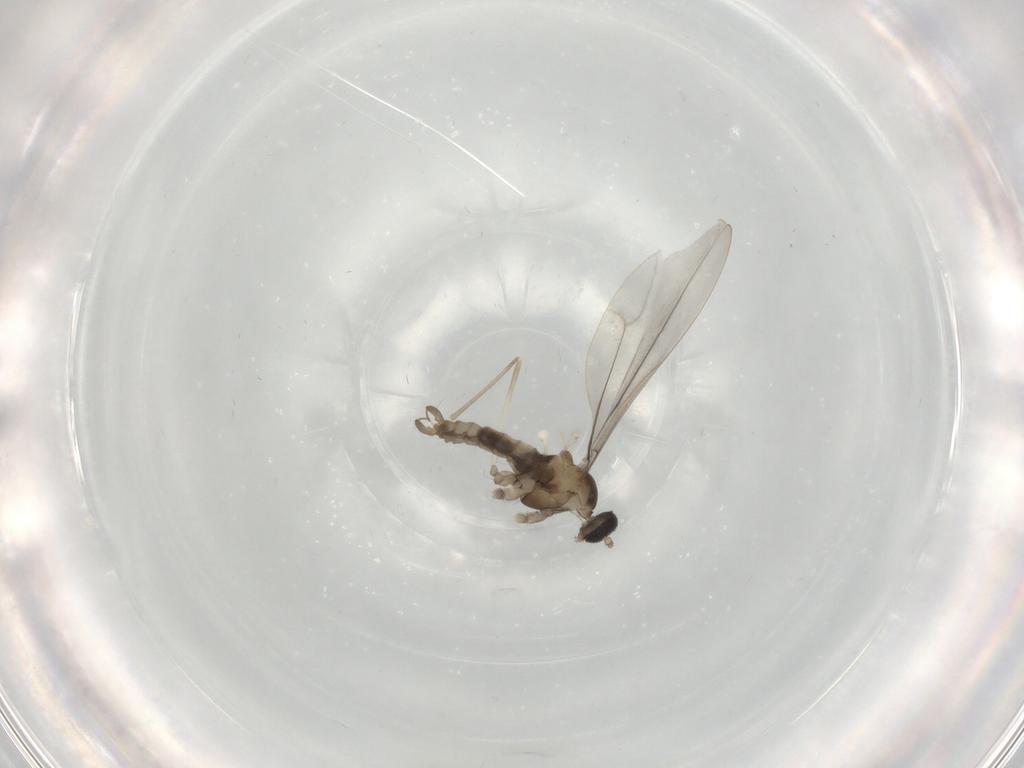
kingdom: Animalia
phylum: Arthropoda
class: Insecta
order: Diptera
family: Cecidomyiidae
